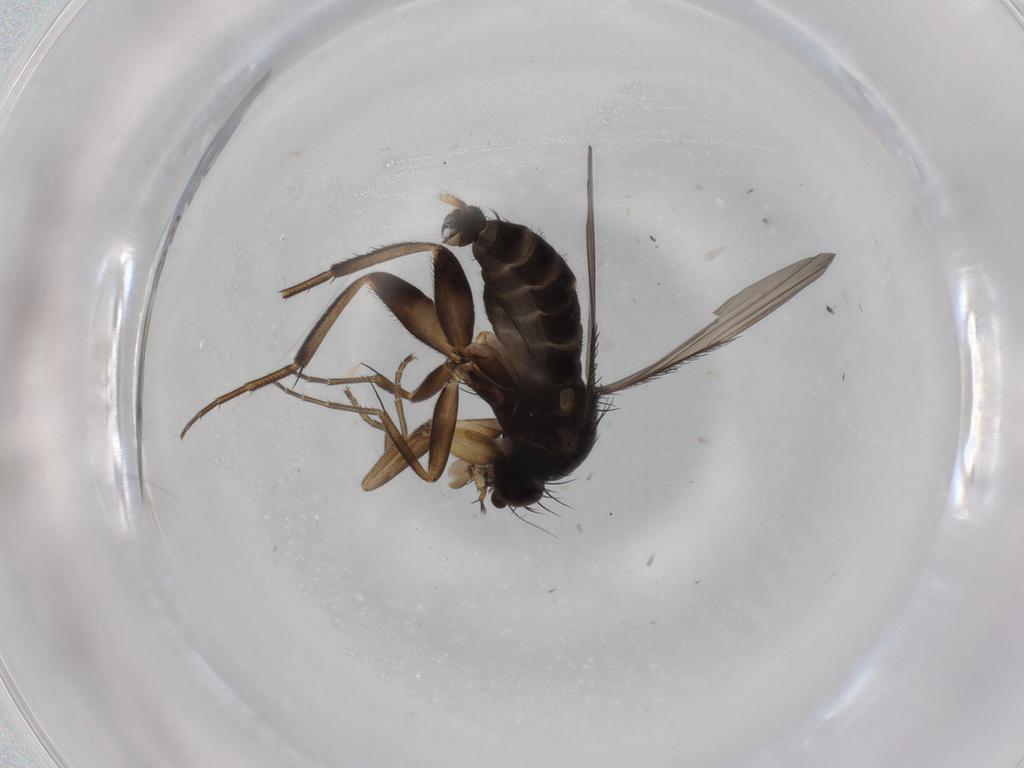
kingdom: Animalia
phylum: Arthropoda
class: Insecta
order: Diptera
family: Phoridae
